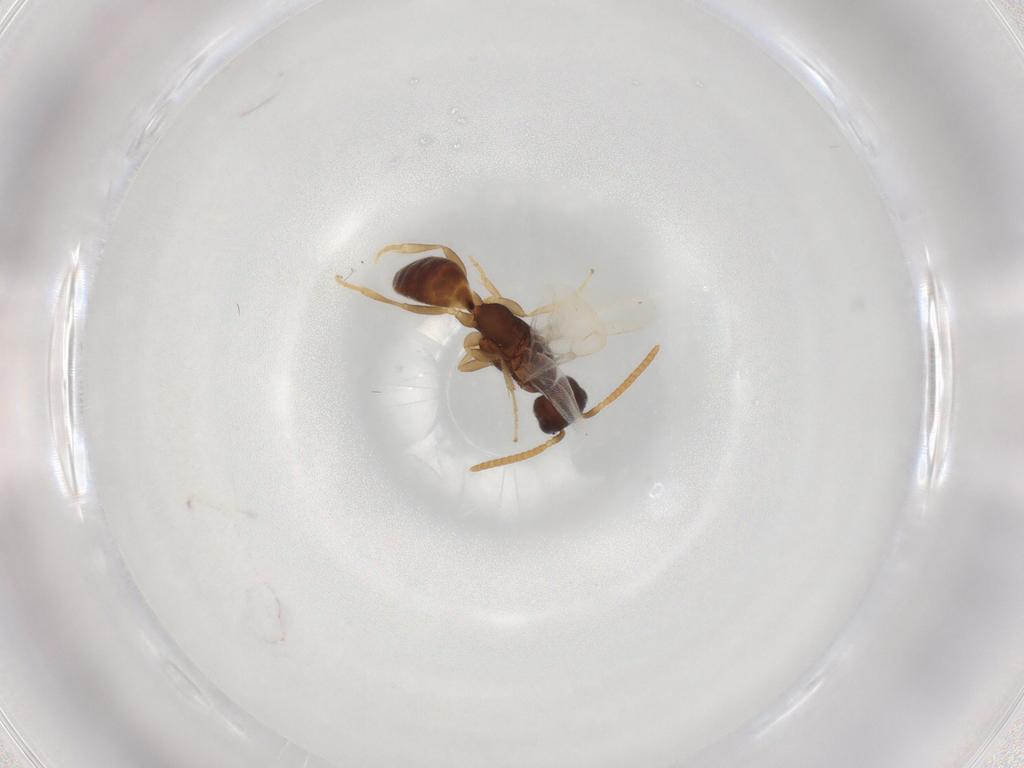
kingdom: Animalia
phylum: Arthropoda
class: Insecta
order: Hymenoptera
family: Bethylidae
